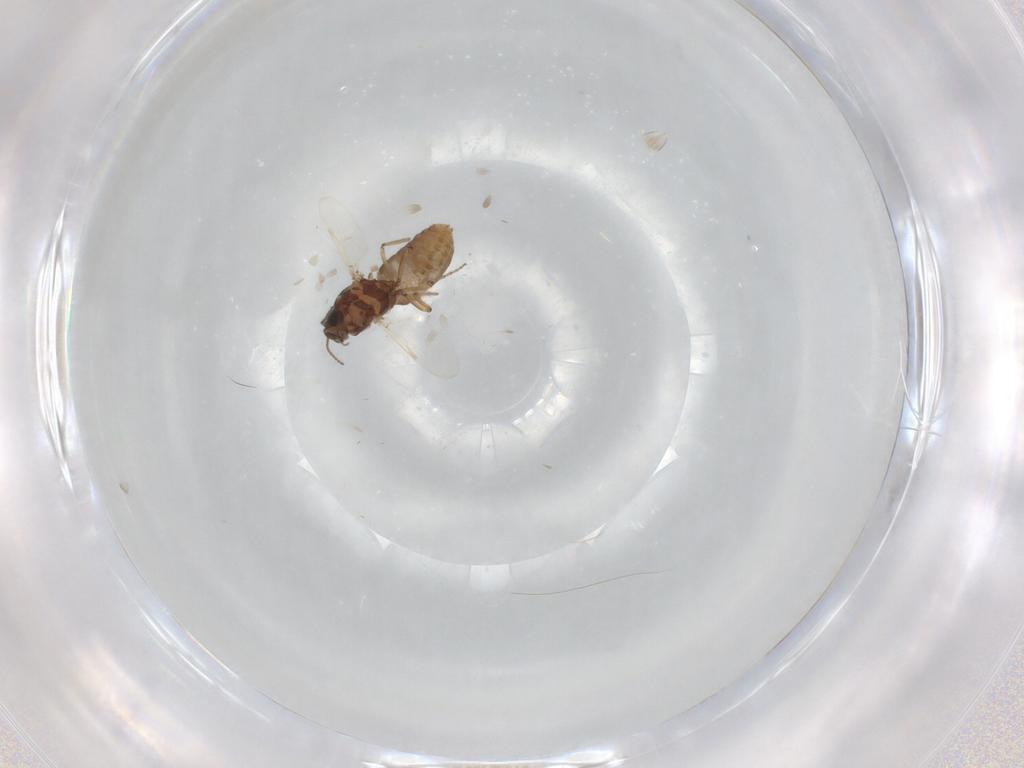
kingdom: Animalia
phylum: Arthropoda
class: Insecta
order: Diptera
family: Ceratopogonidae
